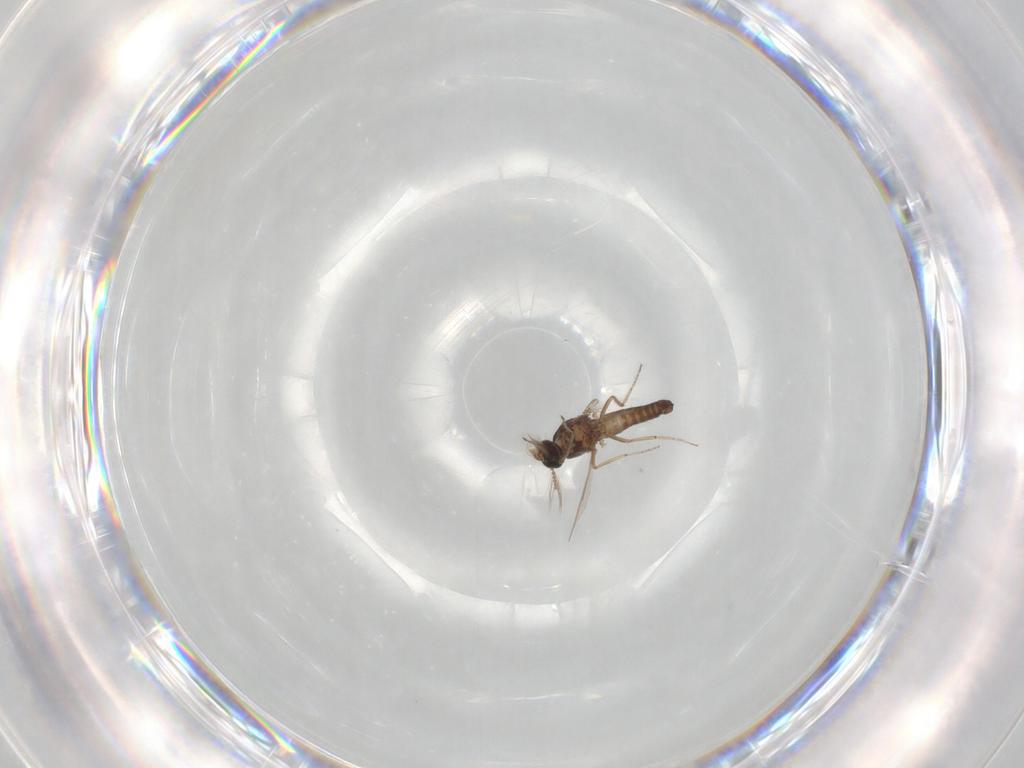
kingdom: Animalia
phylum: Arthropoda
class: Insecta
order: Diptera
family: Ceratopogonidae
